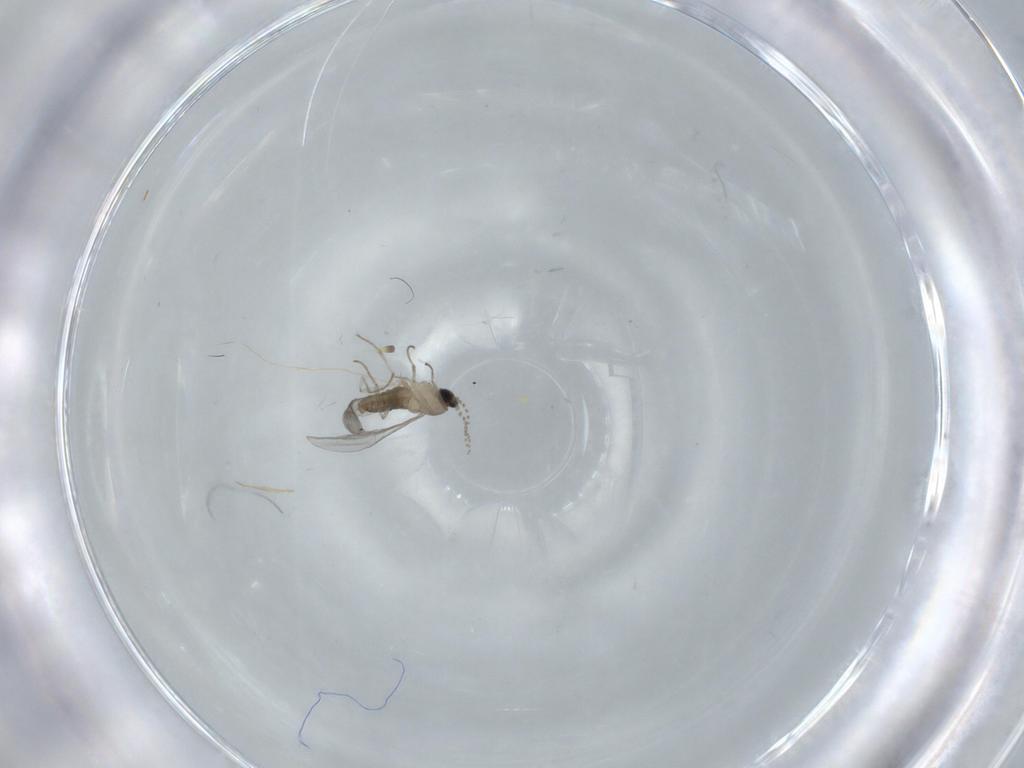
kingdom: Animalia
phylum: Arthropoda
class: Insecta
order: Diptera
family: Cecidomyiidae
